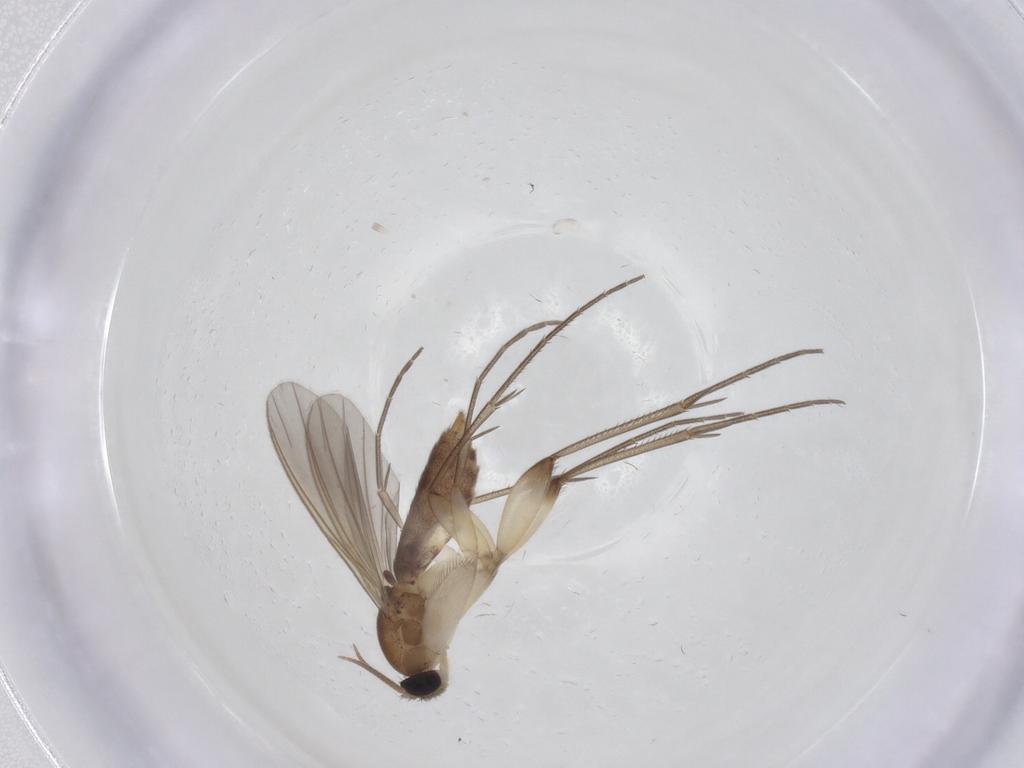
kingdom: Animalia
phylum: Arthropoda
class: Insecta
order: Diptera
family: Mycetophilidae
